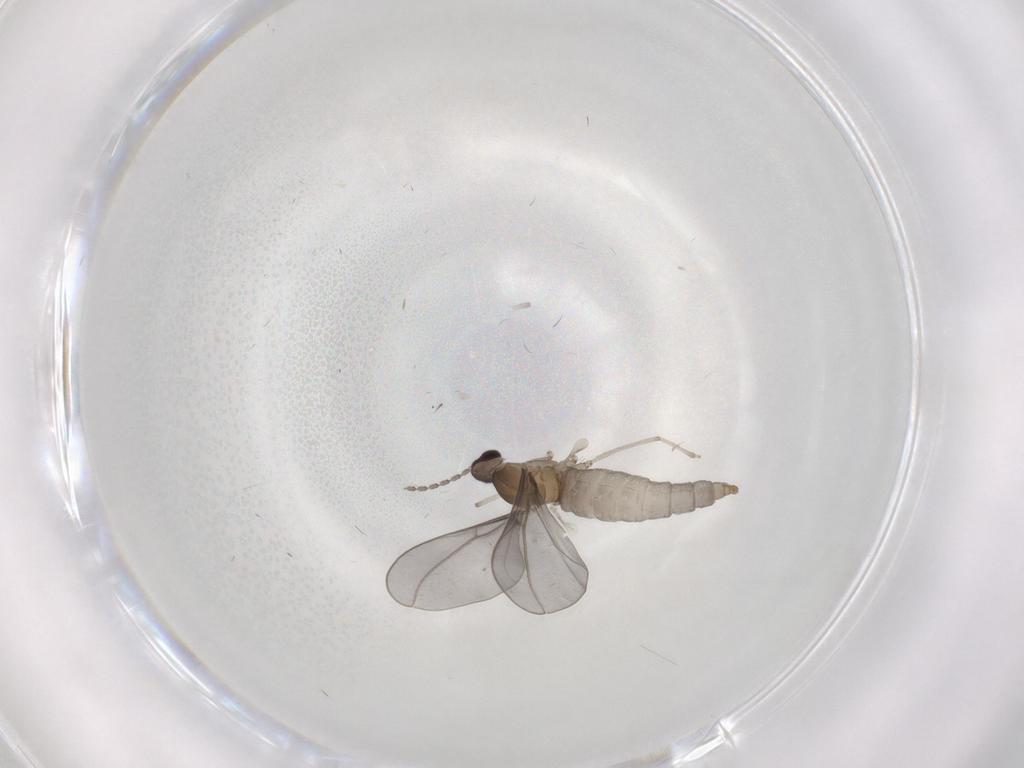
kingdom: Animalia
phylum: Arthropoda
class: Insecta
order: Diptera
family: Cecidomyiidae
